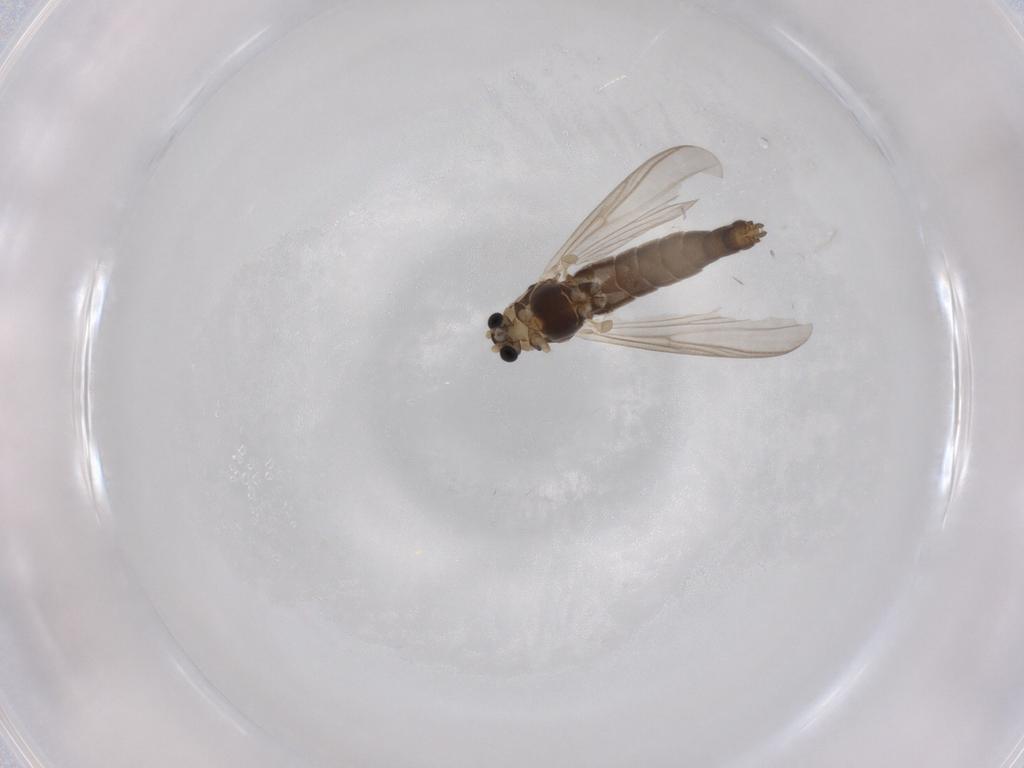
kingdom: Animalia
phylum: Arthropoda
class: Insecta
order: Diptera
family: Chironomidae
